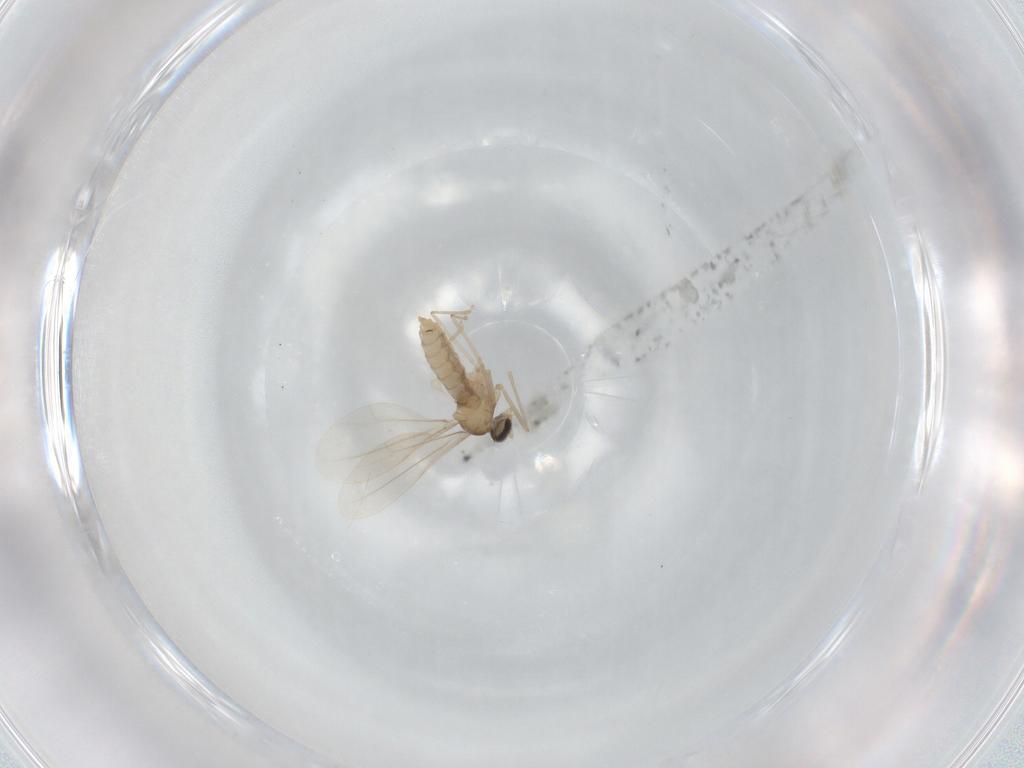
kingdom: Animalia
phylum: Arthropoda
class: Insecta
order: Diptera
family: Cecidomyiidae
